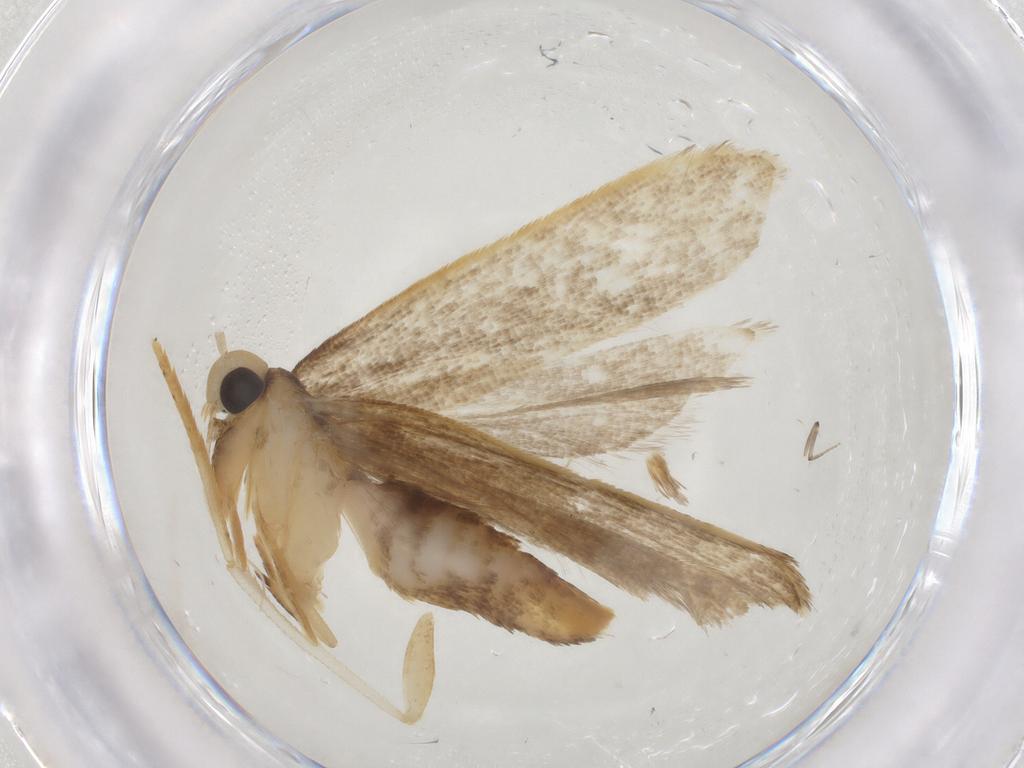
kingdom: Animalia
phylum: Arthropoda
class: Insecta
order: Lepidoptera
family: Gelechiidae
